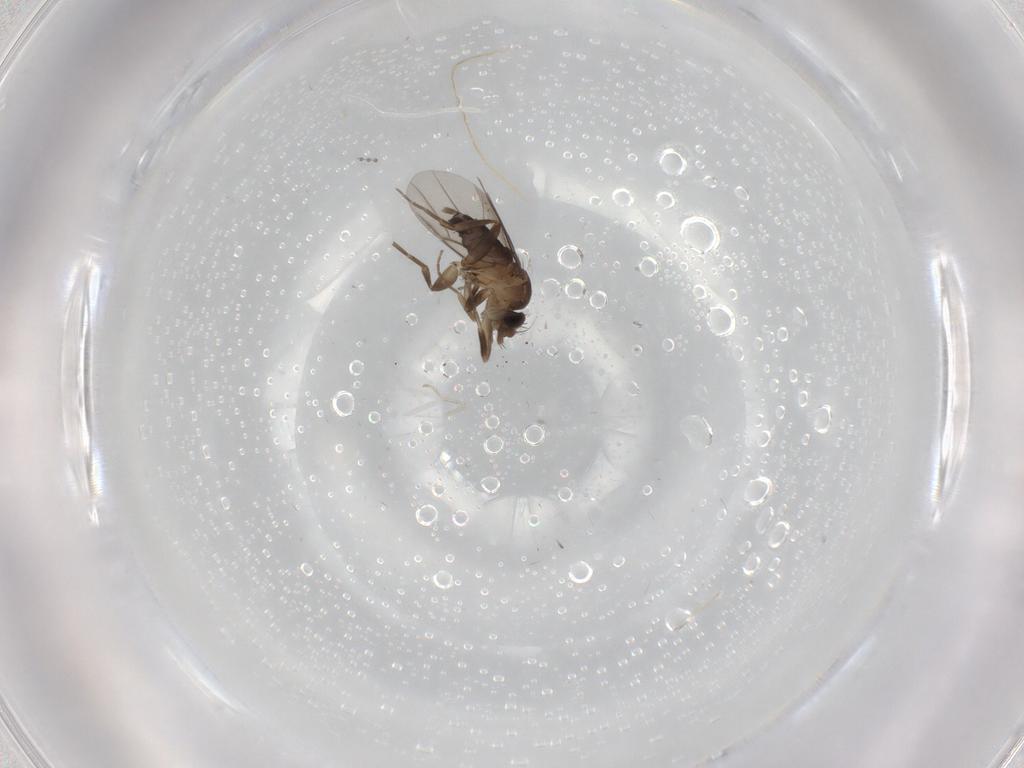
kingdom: Animalia
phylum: Arthropoda
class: Insecta
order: Diptera
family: Phoridae
